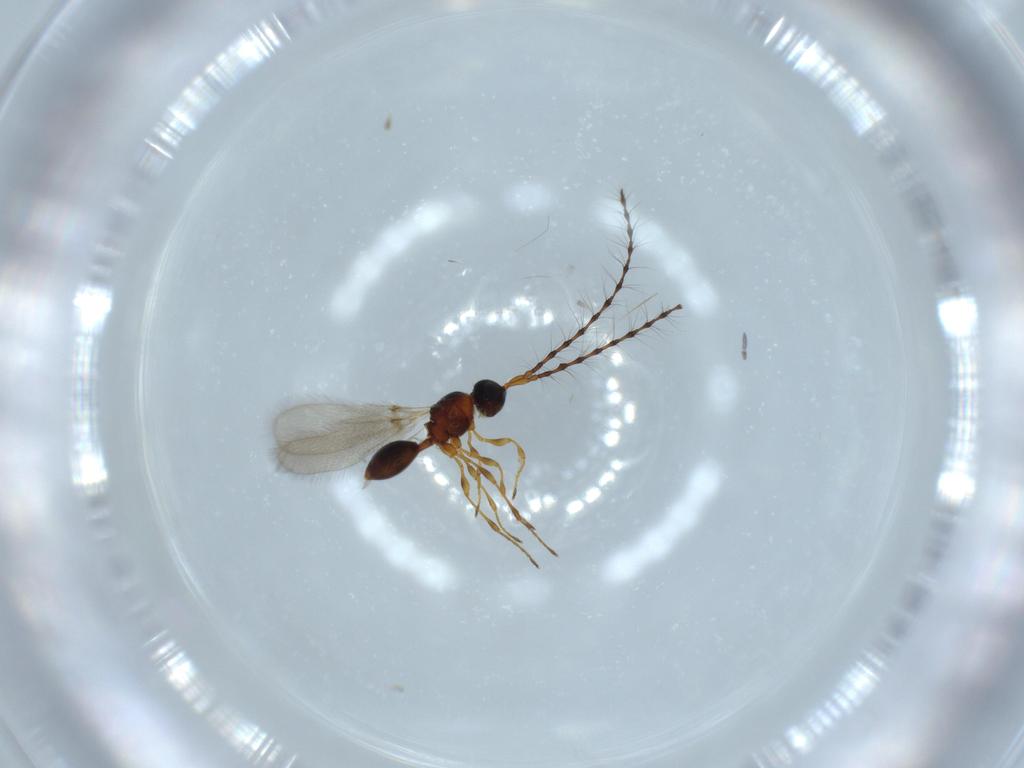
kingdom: Animalia
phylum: Arthropoda
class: Insecta
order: Hymenoptera
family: Diapriidae
